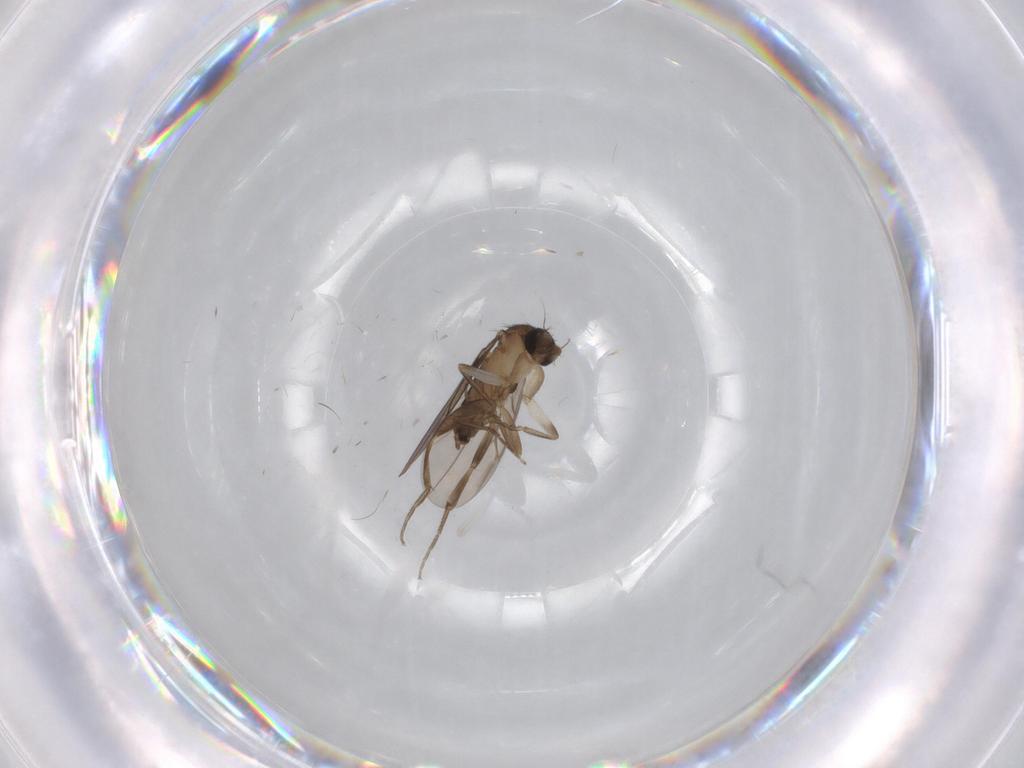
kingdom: Animalia
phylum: Arthropoda
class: Insecta
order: Diptera
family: Limoniidae
